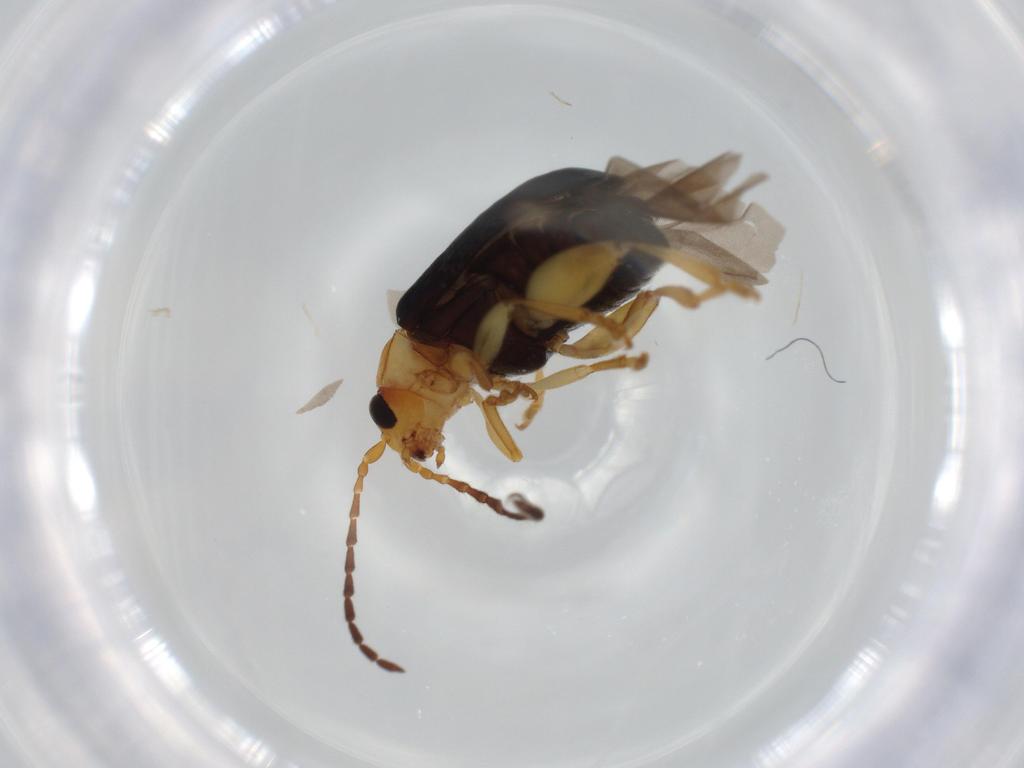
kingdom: Animalia
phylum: Arthropoda
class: Insecta
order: Coleoptera
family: Chrysomelidae
